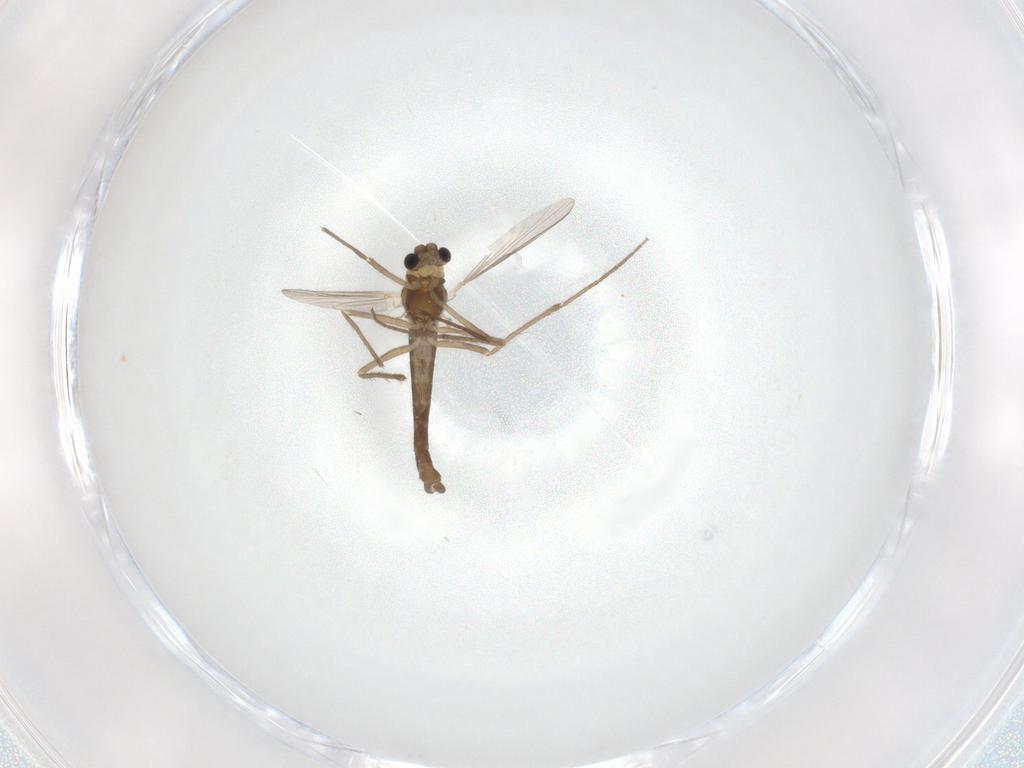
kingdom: Animalia
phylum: Arthropoda
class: Insecta
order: Diptera
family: Chironomidae
